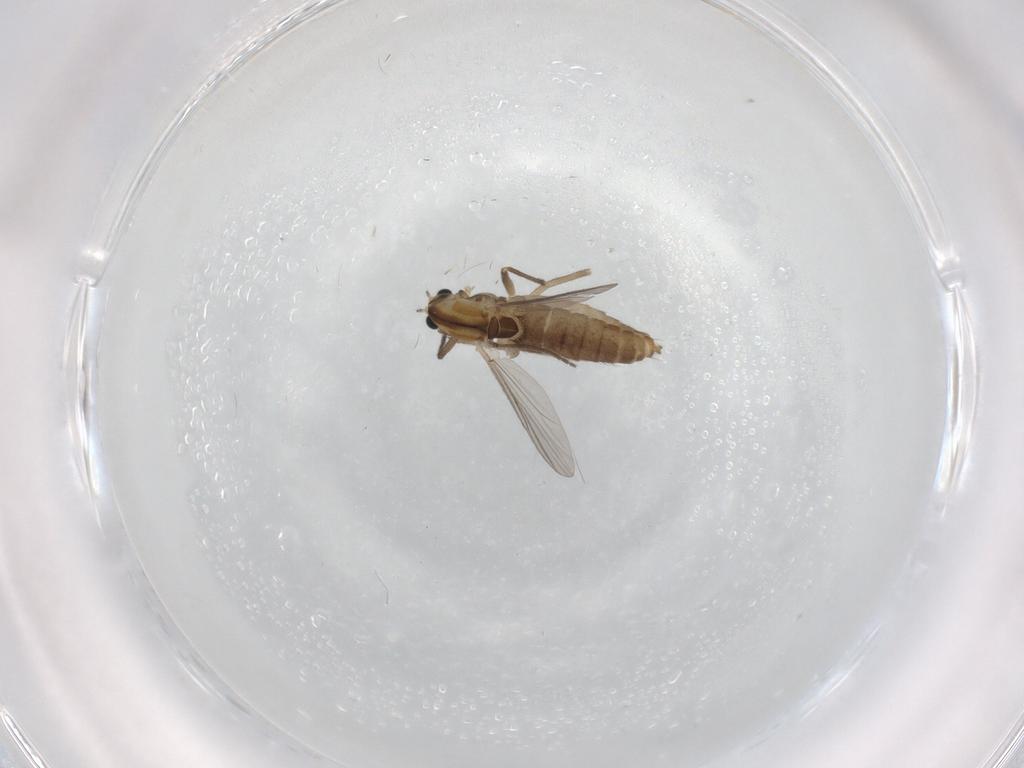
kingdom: Animalia
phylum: Arthropoda
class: Insecta
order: Diptera
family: Chironomidae
